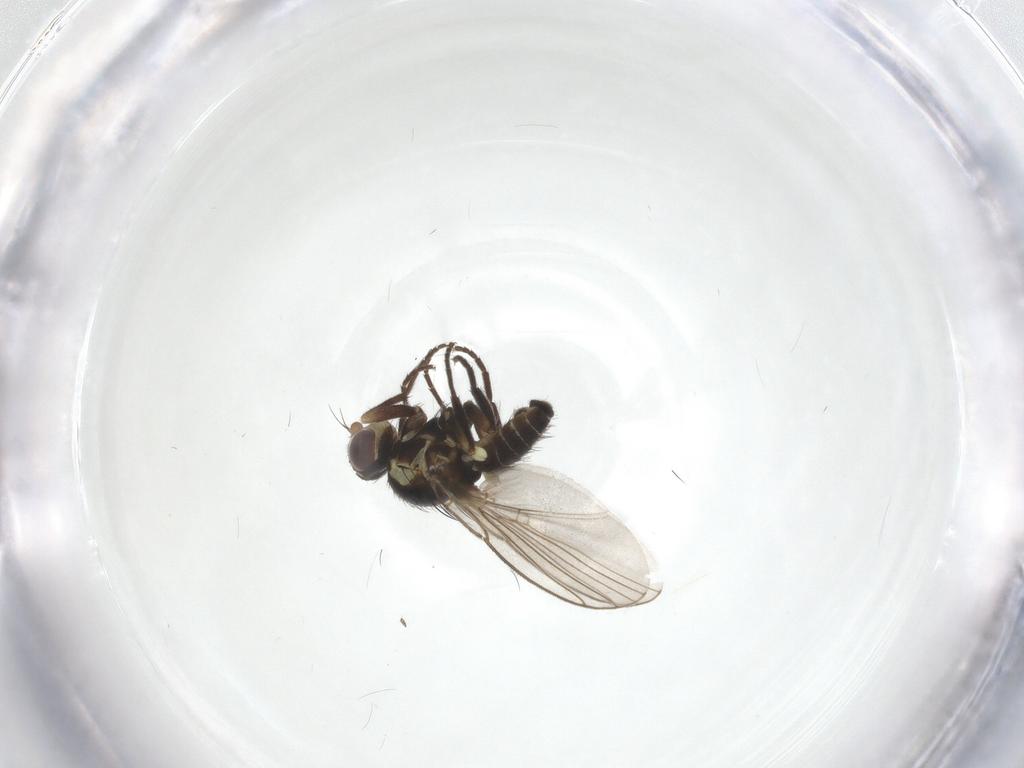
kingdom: Animalia
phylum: Arthropoda
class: Insecta
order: Diptera
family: Agromyzidae
